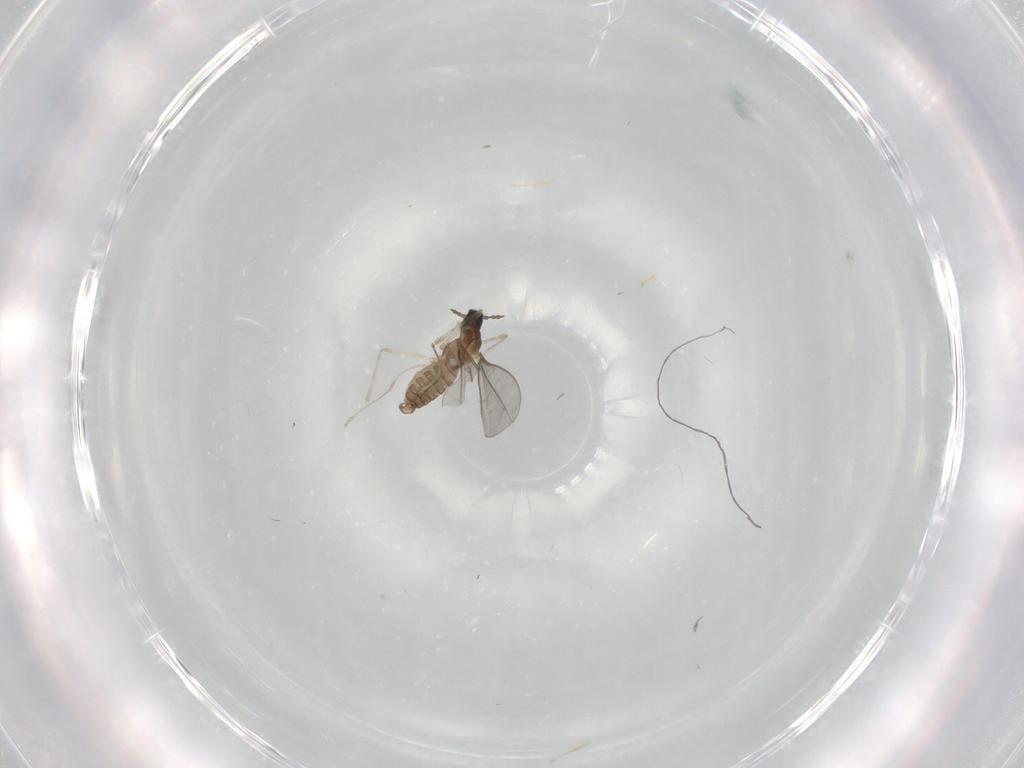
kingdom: Animalia
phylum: Arthropoda
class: Insecta
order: Diptera
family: Cecidomyiidae
